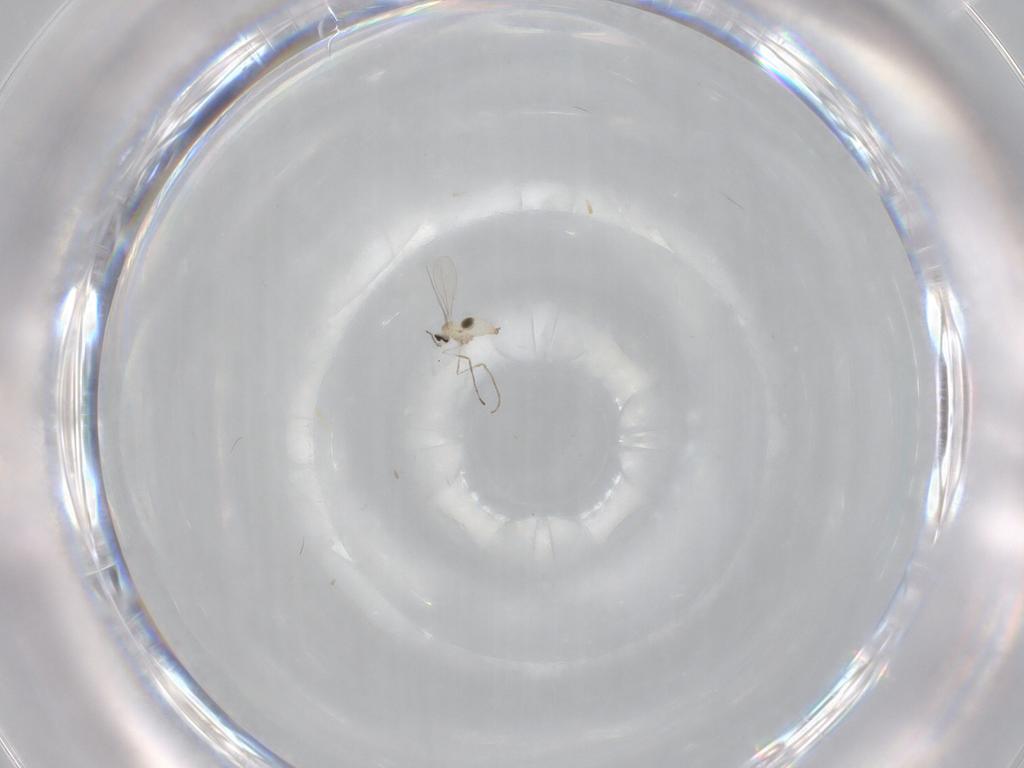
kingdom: Animalia
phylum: Arthropoda
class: Insecta
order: Diptera
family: Cecidomyiidae
